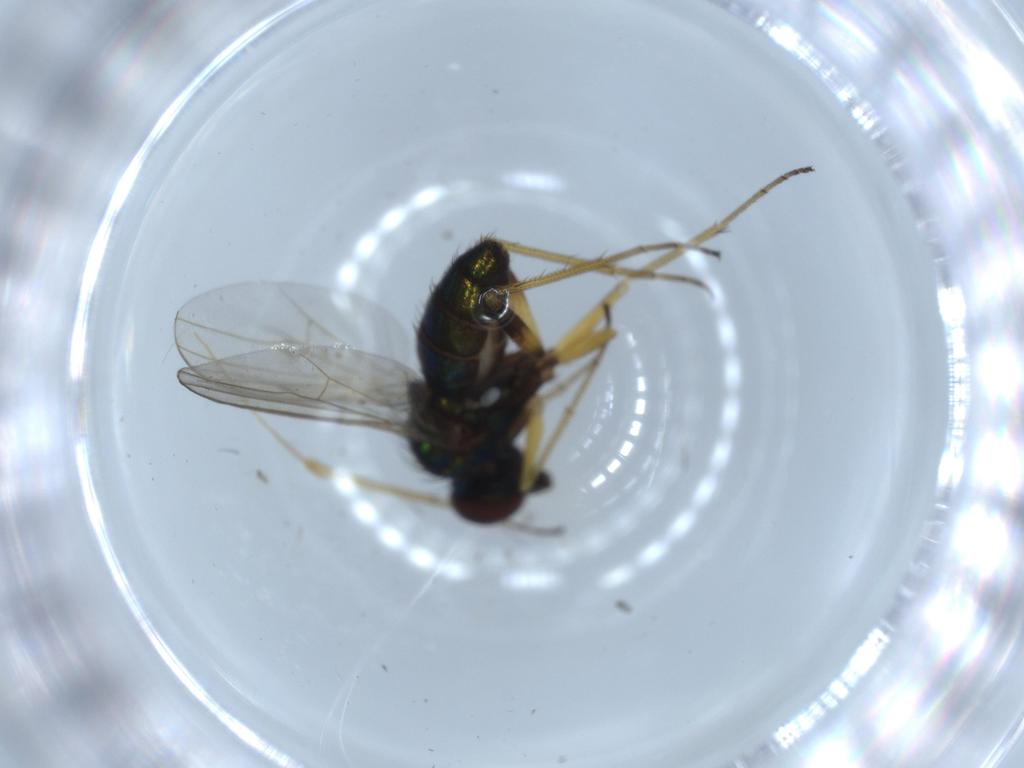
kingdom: Animalia
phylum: Arthropoda
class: Insecta
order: Diptera
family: Dolichopodidae
